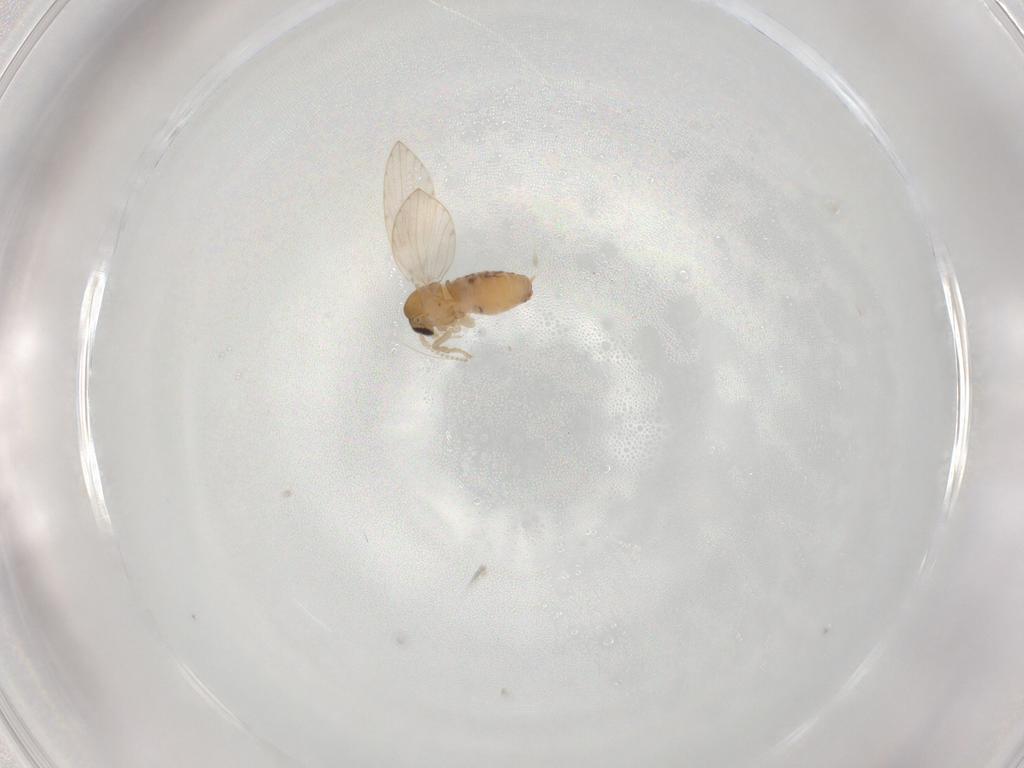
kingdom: Animalia
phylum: Arthropoda
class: Insecta
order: Diptera
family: Psychodidae
